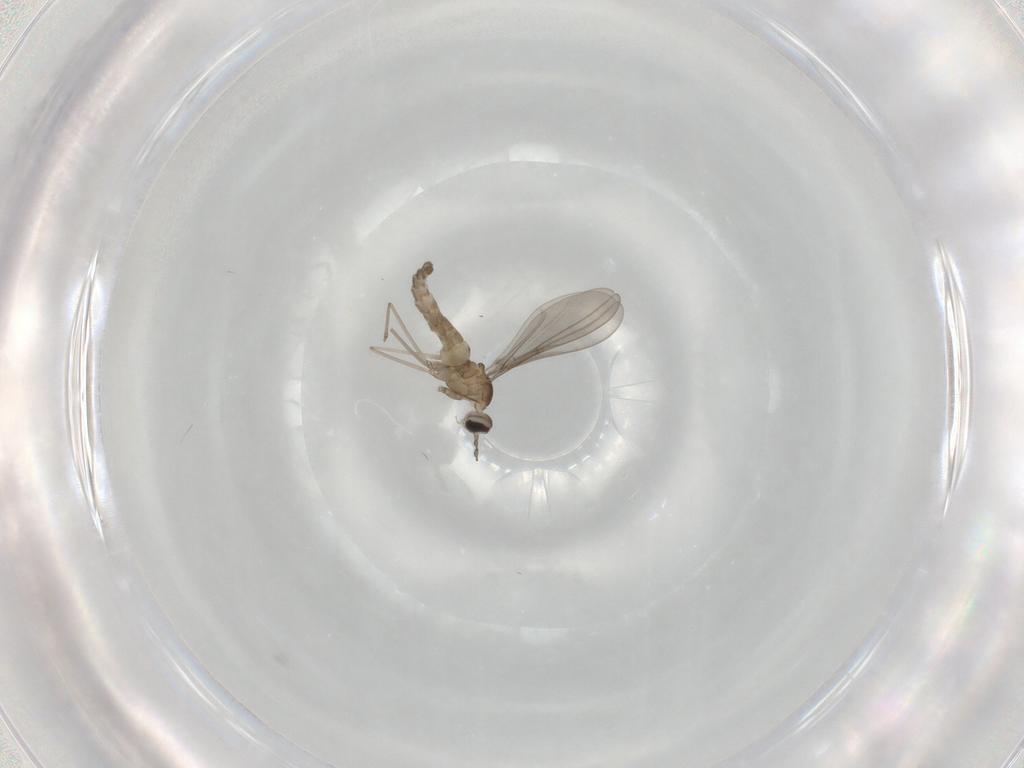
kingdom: Animalia
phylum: Arthropoda
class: Insecta
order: Diptera
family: Cecidomyiidae
